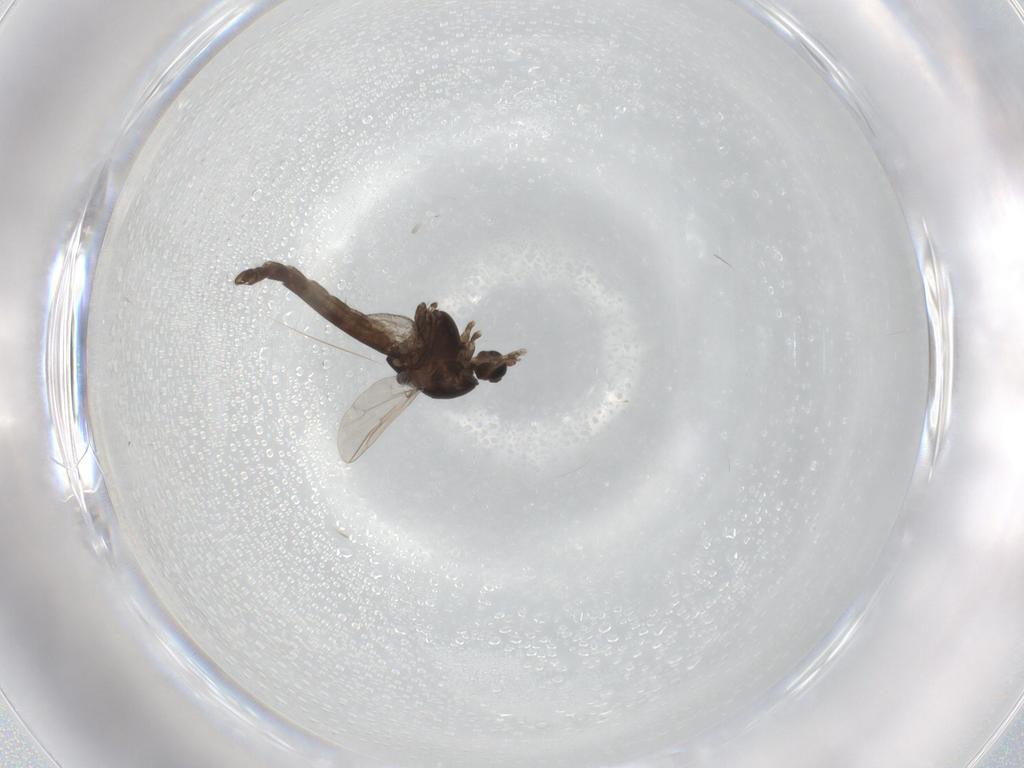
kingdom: Animalia
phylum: Arthropoda
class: Insecta
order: Diptera
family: Chironomidae
